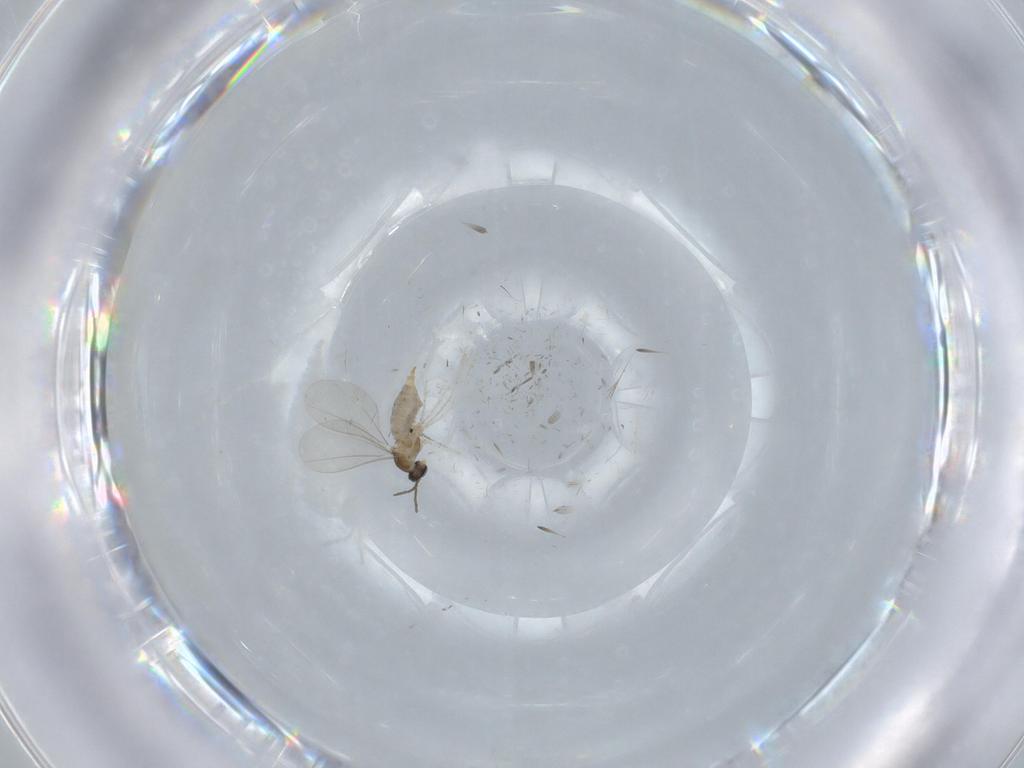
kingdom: Animalia
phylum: Arthropoda
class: Insecta
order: Diptera
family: Cecidomyiidae
